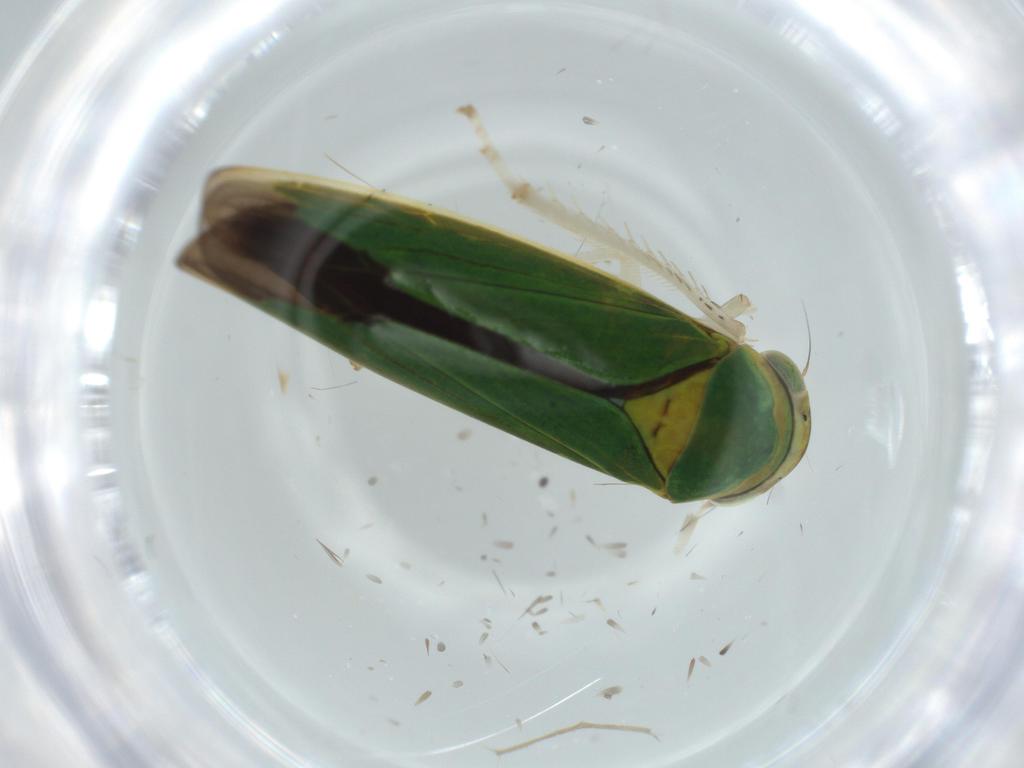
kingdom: Animalia
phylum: Arthropoda
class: Insecta
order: Hemiptera
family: Cicadellidae
